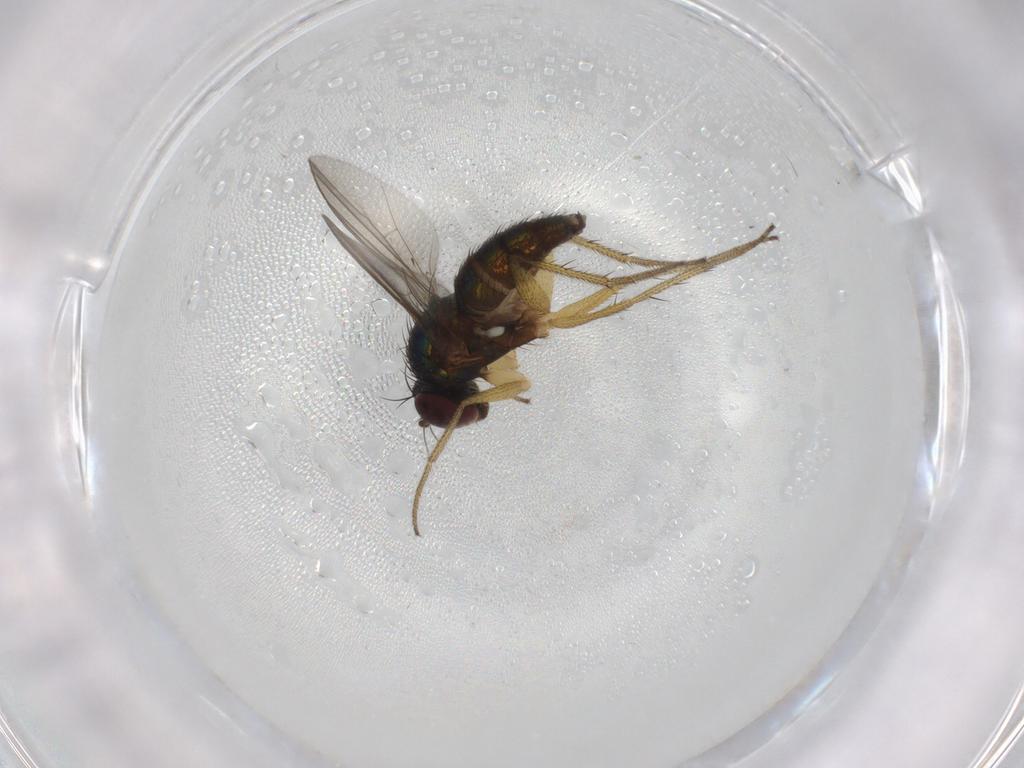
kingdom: Animalia
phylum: Arthropoda
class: Insecta
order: Diptera
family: Dolichopodidae
